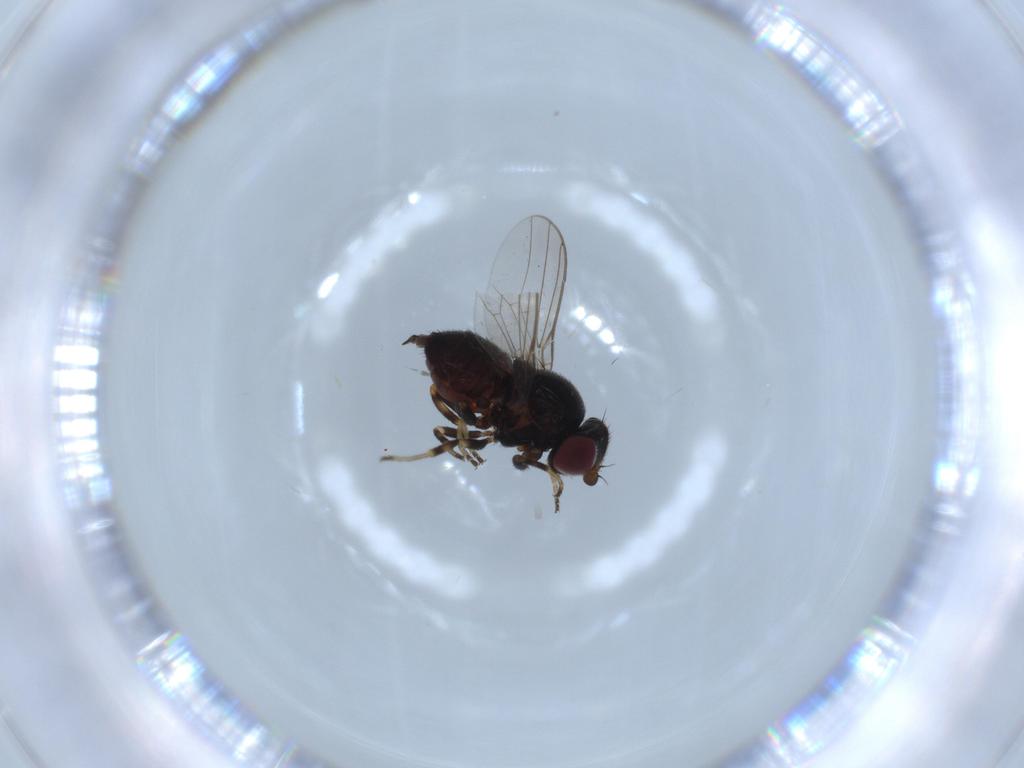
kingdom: Animalia
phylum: Arthropoda
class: Insecta
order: Diptera
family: Chloropidae
